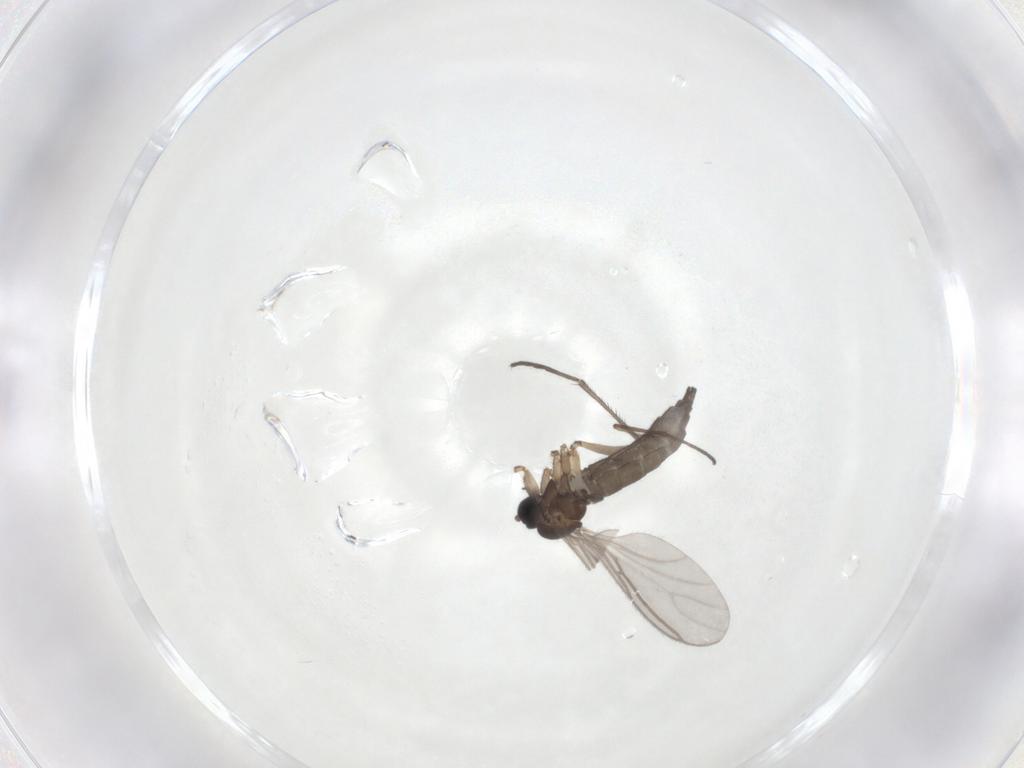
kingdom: Animalia
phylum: Arthropoda
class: Insecta
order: Diptera
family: Sciaridae
